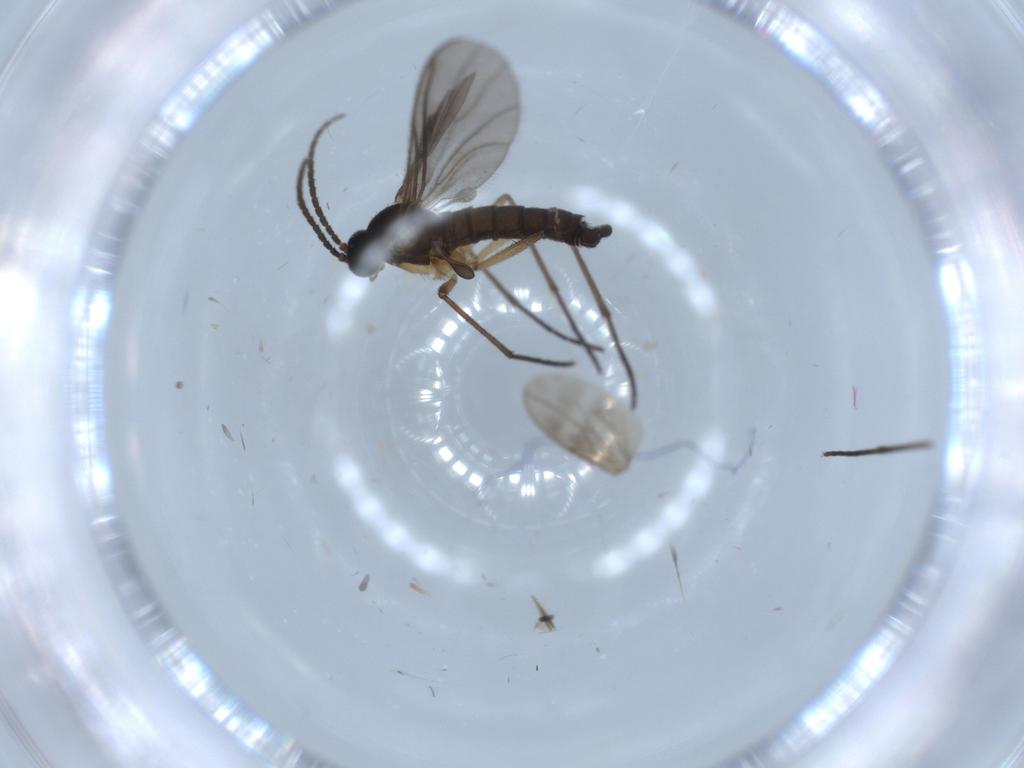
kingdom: Animalia
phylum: Arthropoda
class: Insecta
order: Diptera
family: Sciaridae
